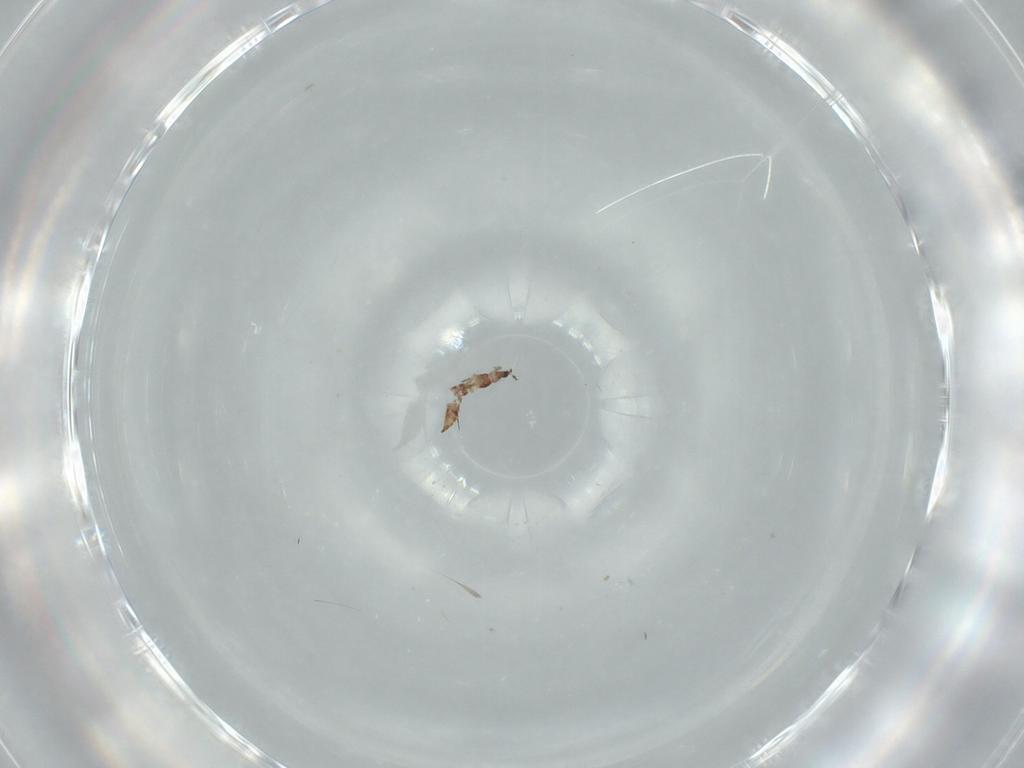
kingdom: Animalia
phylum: Arthropoda
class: Insecta
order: Thysanoptera
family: Phlaeothripidae
